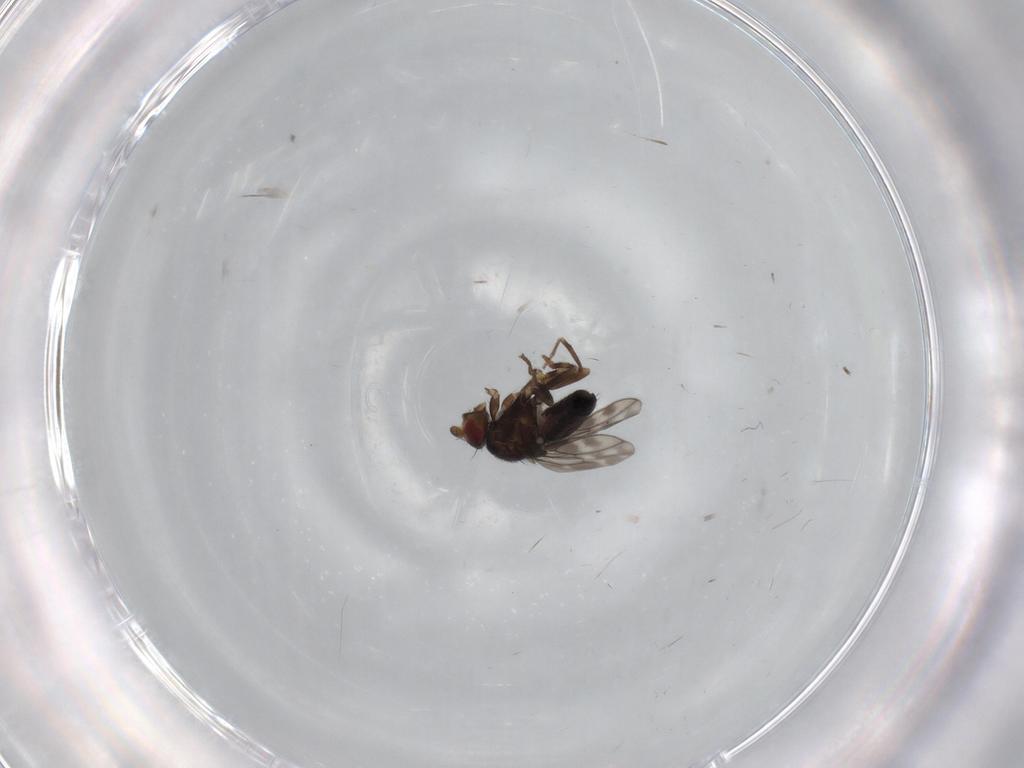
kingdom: Animalia
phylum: Arthropoda
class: Insecta
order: Diptera
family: Sphaeroceridae
